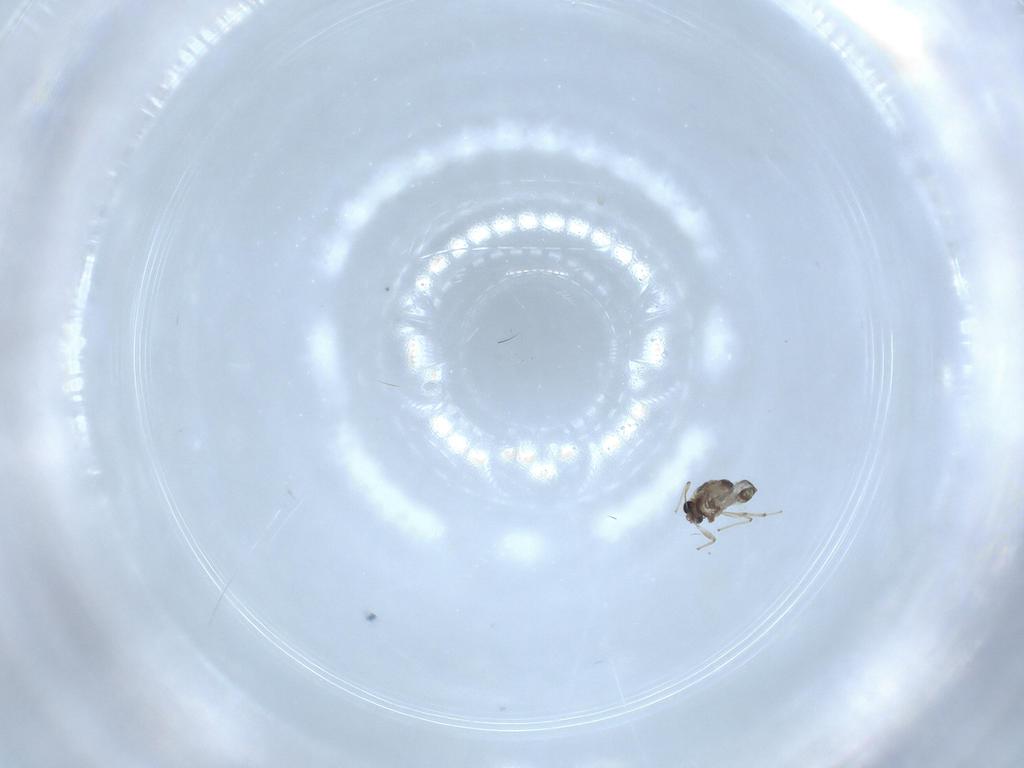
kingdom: Animalia
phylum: Arthropoda
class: Insecta
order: Diptera
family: Chironomidae
